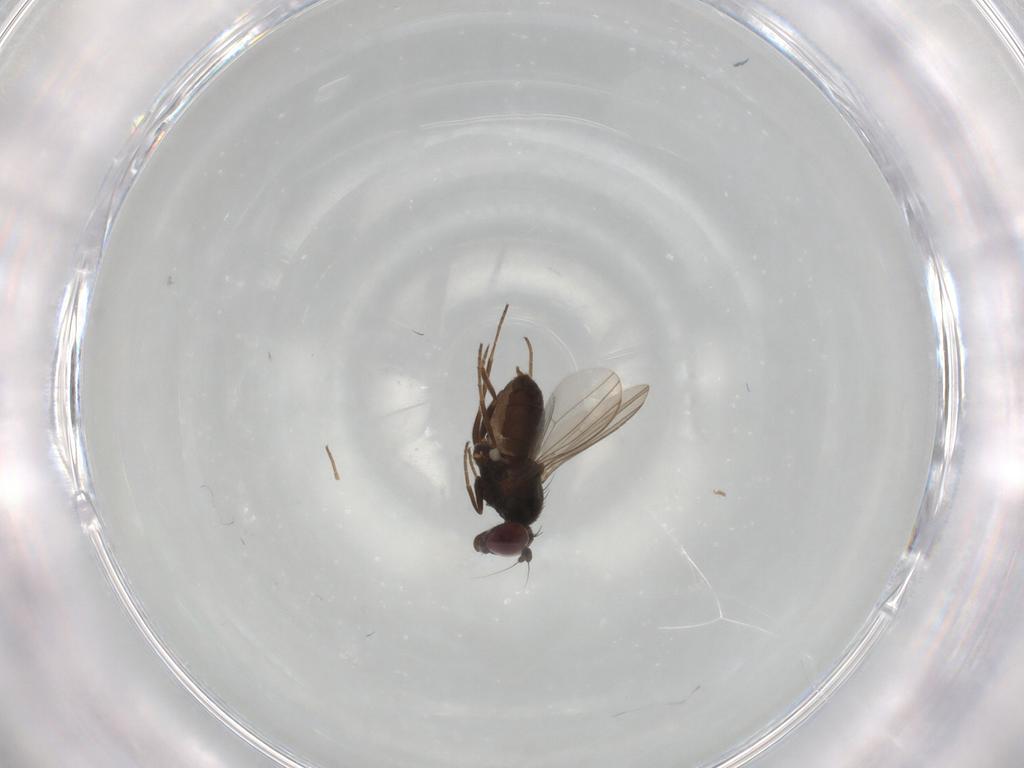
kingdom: Animalia
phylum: Arthropoda
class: Insecta
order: Diptera
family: Dolichopodidae
